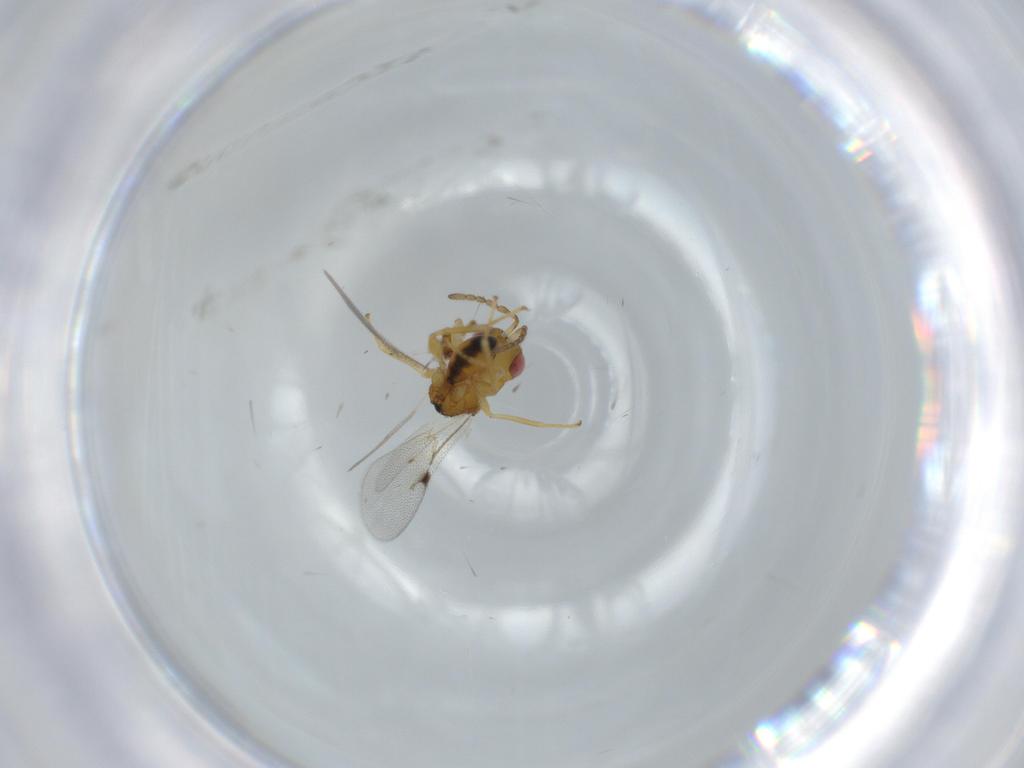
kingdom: Animalia
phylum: Arthropoda
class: Insecta
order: Hymenoptera
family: Eurytomidae
